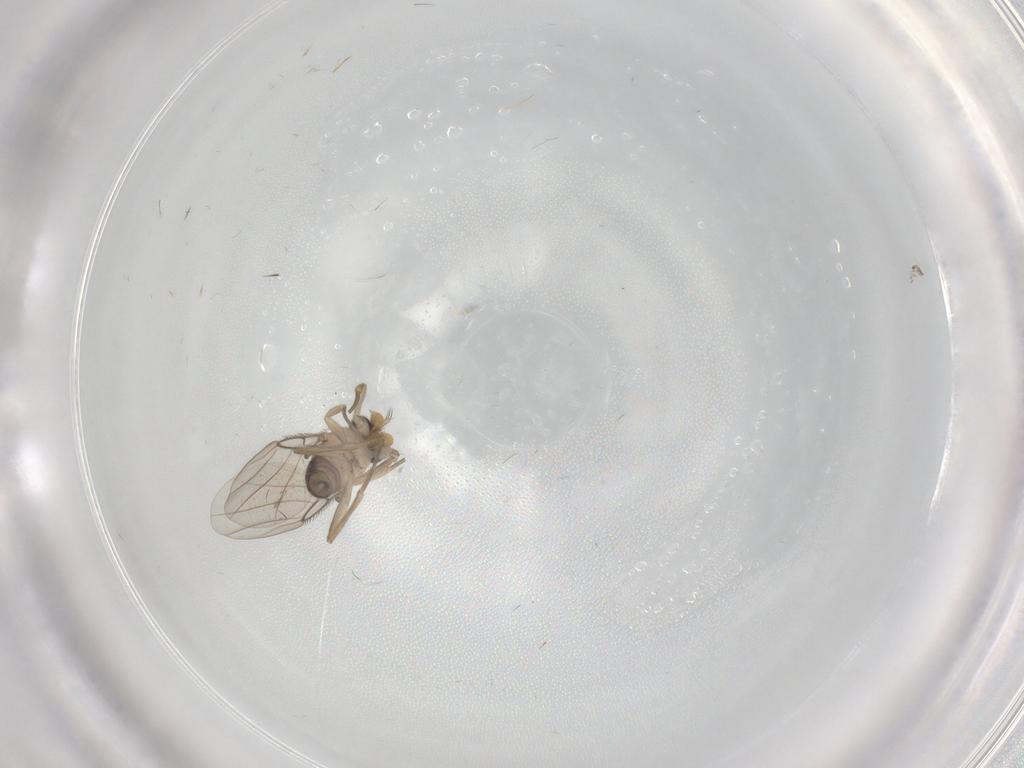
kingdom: Animalia
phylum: Arthropoda
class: Insecta
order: Diptera
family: Phoridae
